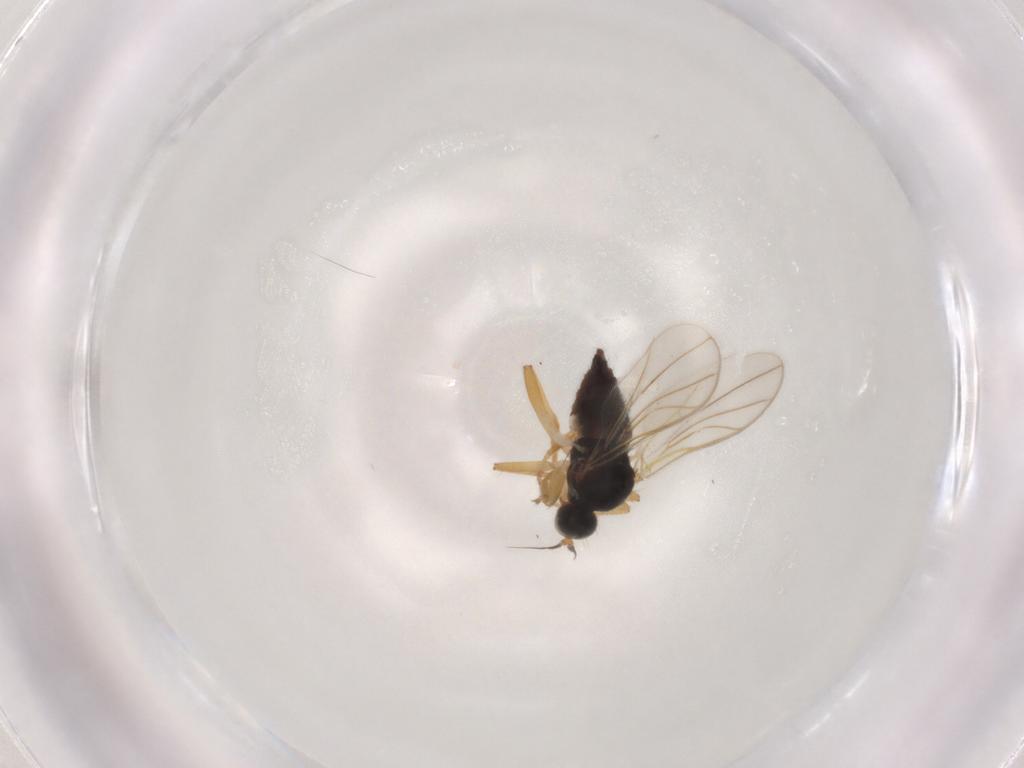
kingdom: Animalia
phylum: Arthropoda
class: Insecta
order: Diptera
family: Hybotidae
